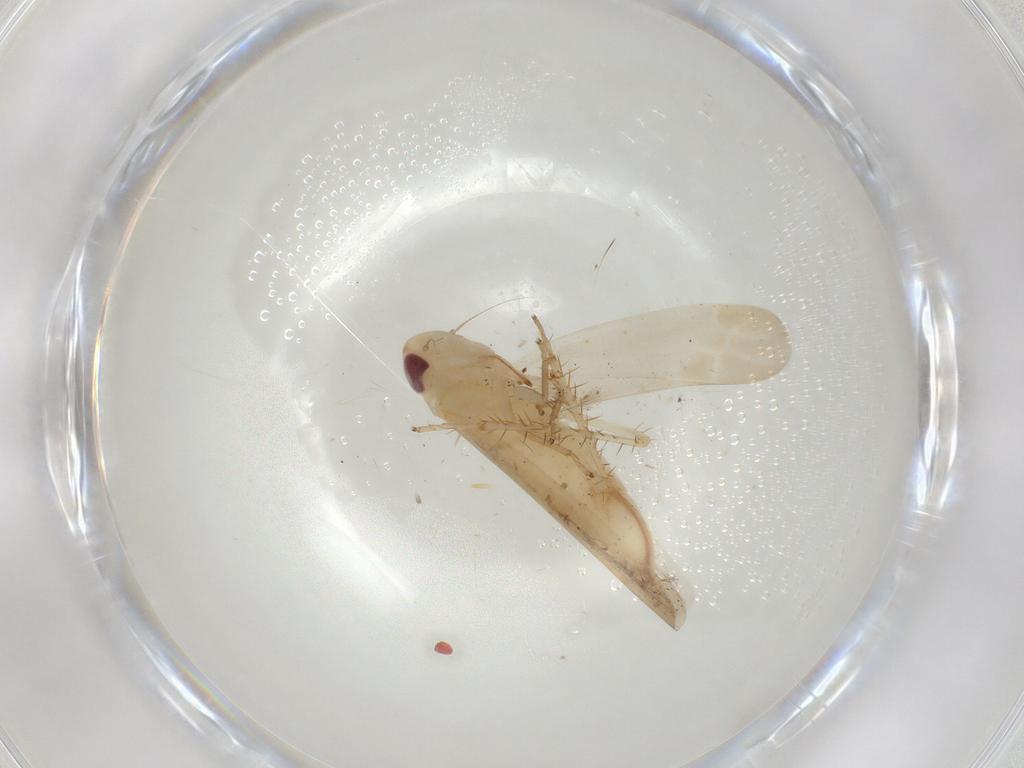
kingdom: Animalia
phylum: Arthropoda
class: Insecta
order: Hemiptera
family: Cicadellidae
